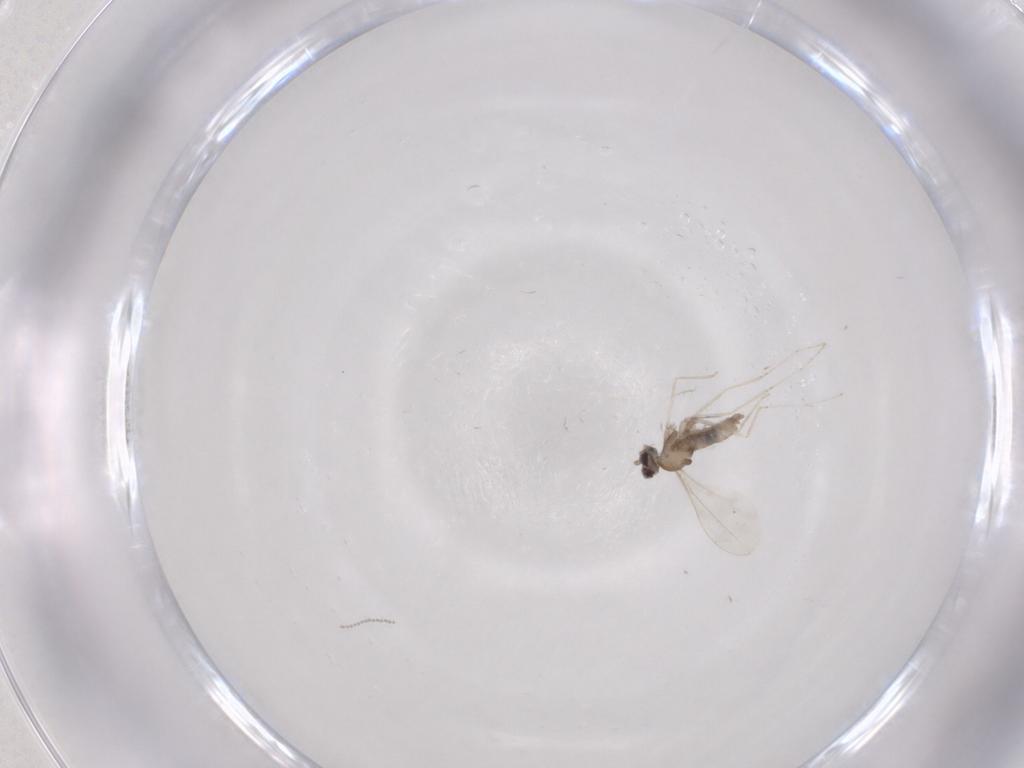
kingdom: Animalia
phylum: Arthropoda
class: Insecta
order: Diptera
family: Cecidomyiidae
